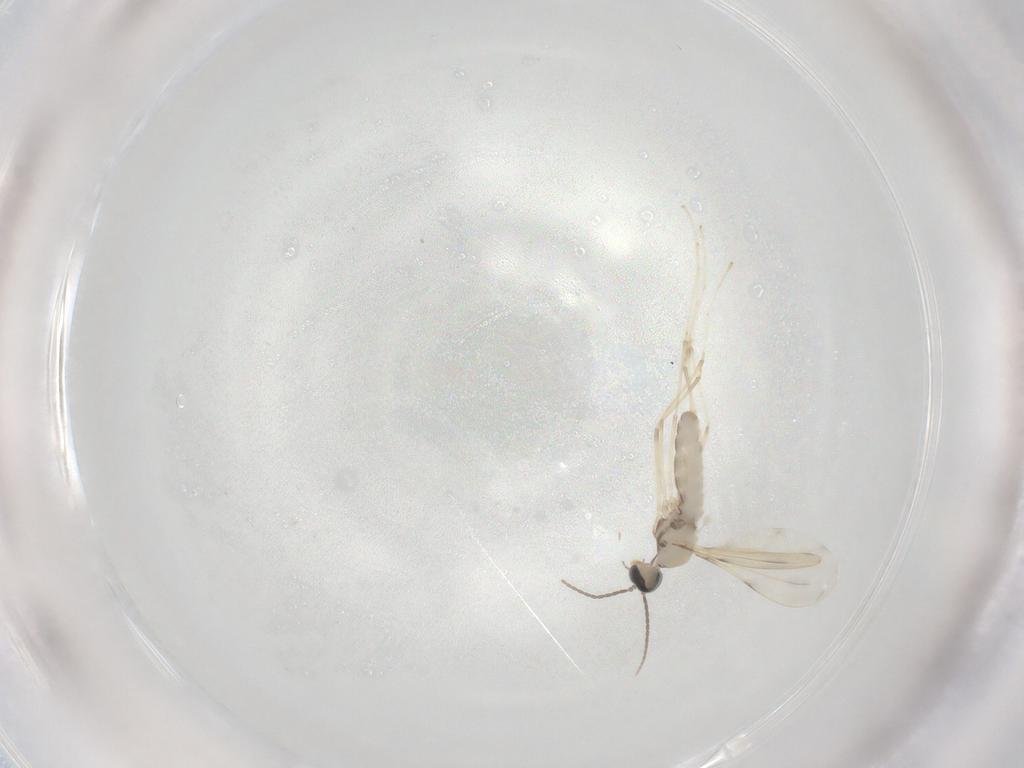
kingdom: Animalia
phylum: Arthropoda
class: Insecta
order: Diptera
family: Cecidomyiidae
